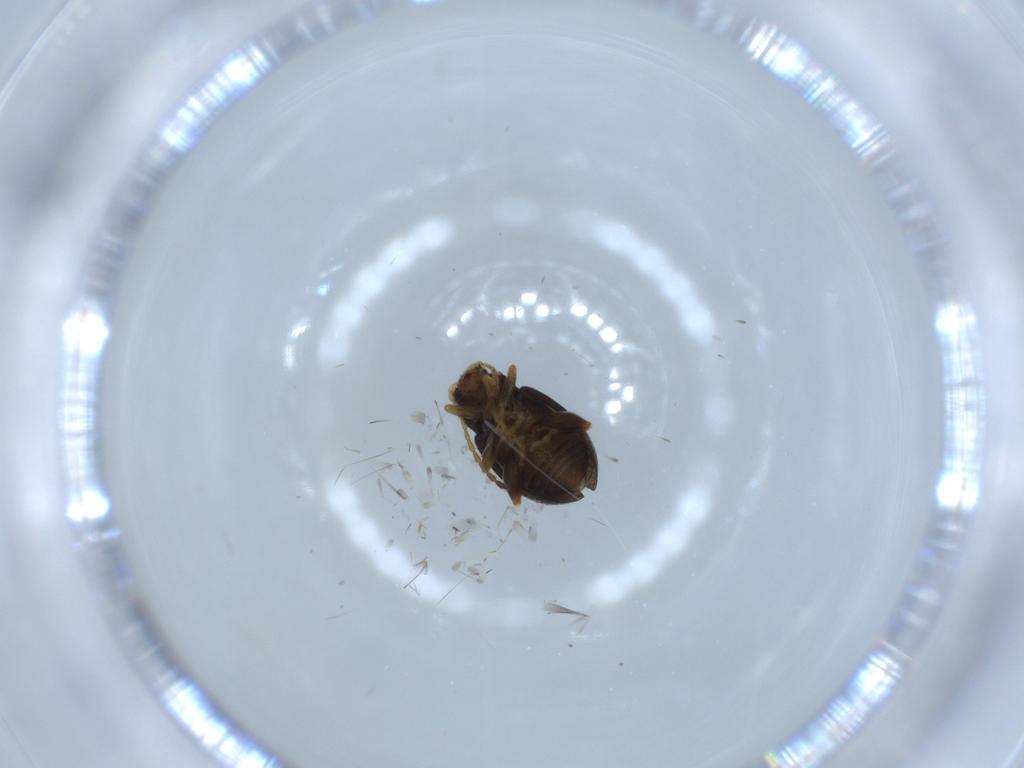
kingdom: Animalia
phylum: Arthropoda
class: Insecta
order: Coleoptera
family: Chrysomelidae
